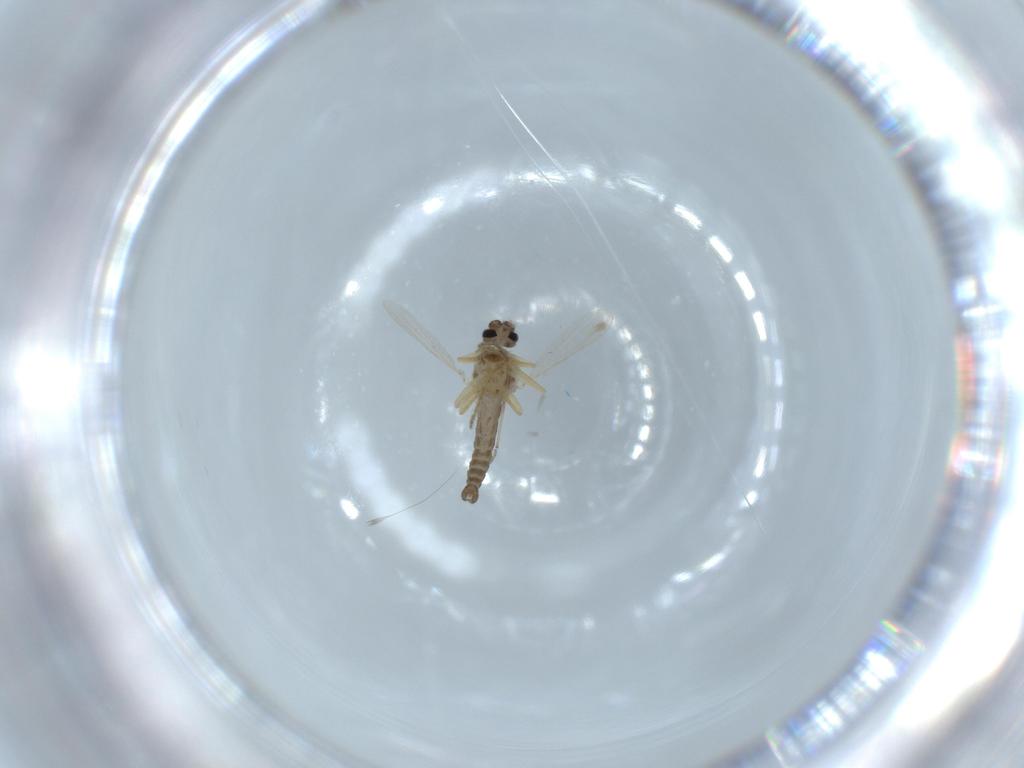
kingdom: Animalia
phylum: Arthropoda
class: Insecta
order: Diptera
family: Ceratopogonidae
